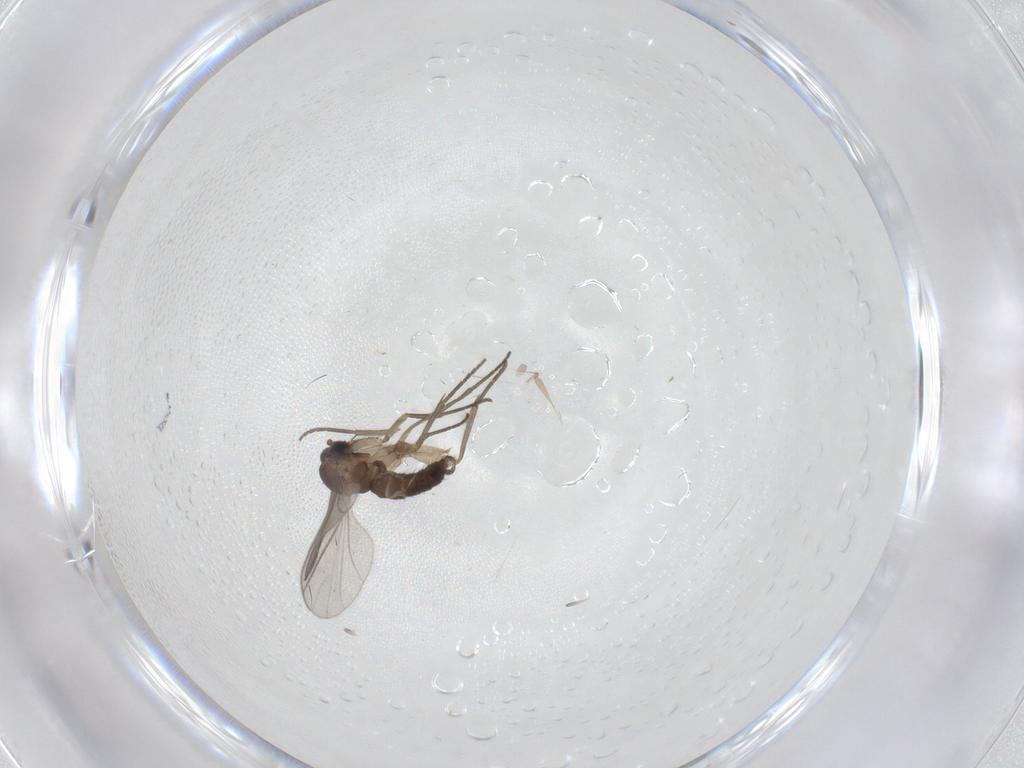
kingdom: Animalia
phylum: Arthropoda
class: Insecta
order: Diptera
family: Sciaridae
